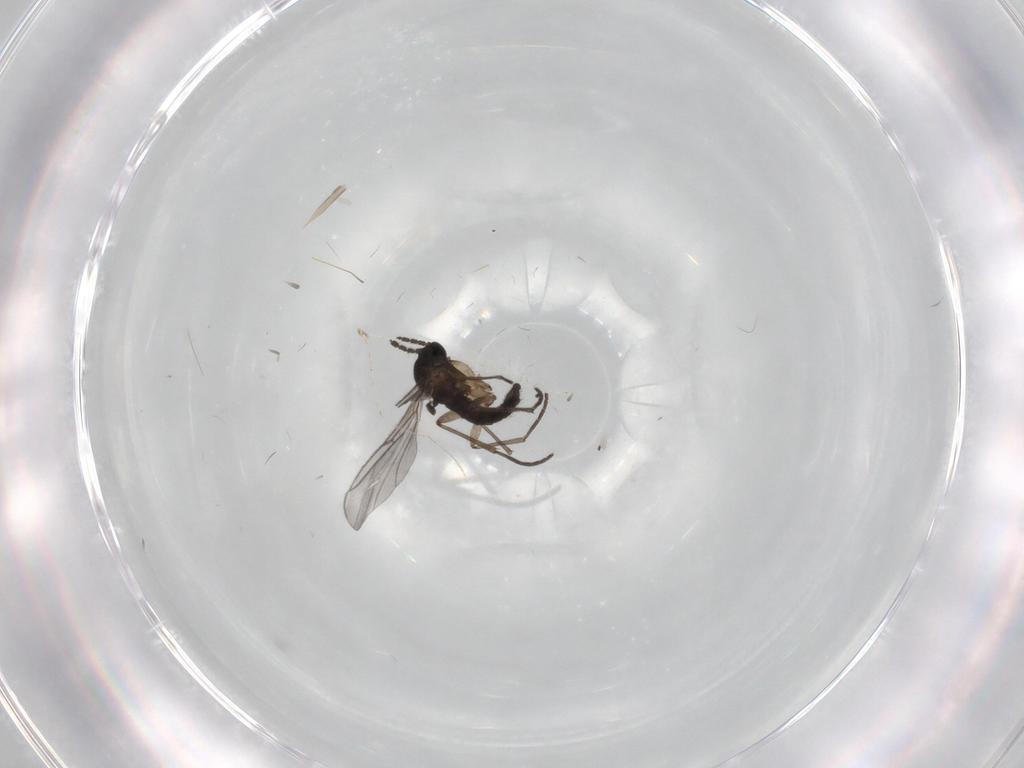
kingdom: Animalia
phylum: Arthropoda
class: Insecta
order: Diptera
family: Sciaridae
